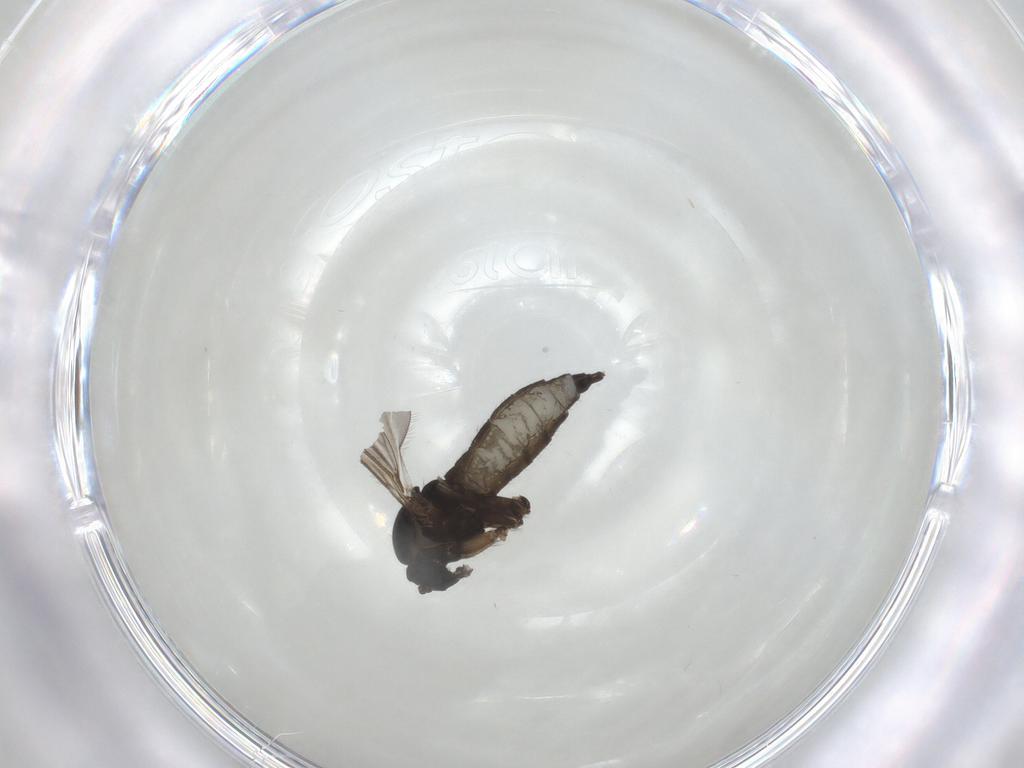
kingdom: Animalia
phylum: Arthropoda
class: Insecta
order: Diptera
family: Sciaridae
